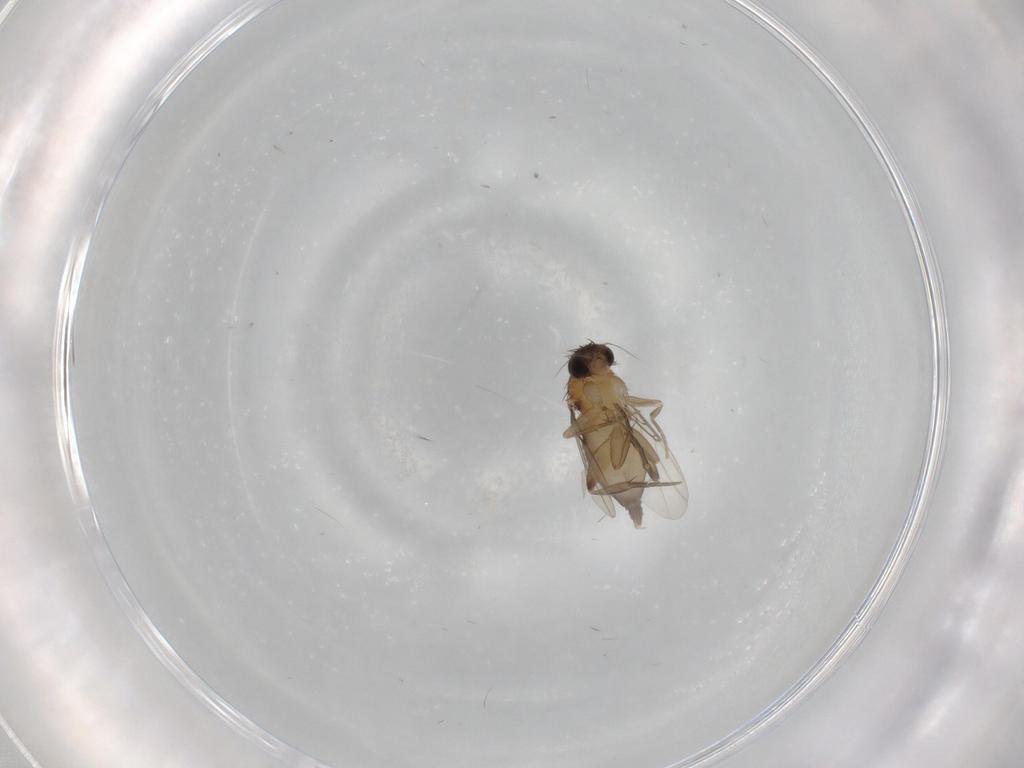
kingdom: Animalia
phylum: Arthropoda
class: Insecta
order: Diptera
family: Phoridae
